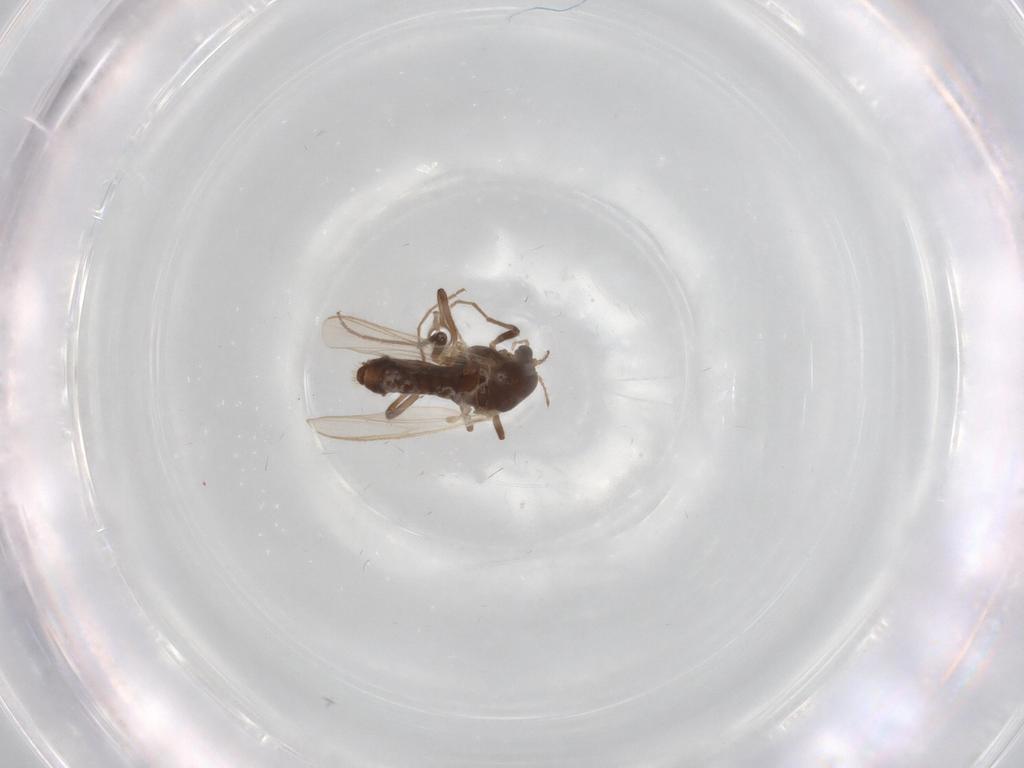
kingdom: Animalia
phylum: Arthropoda
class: Insecta
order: Diptera
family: Chironomidae
